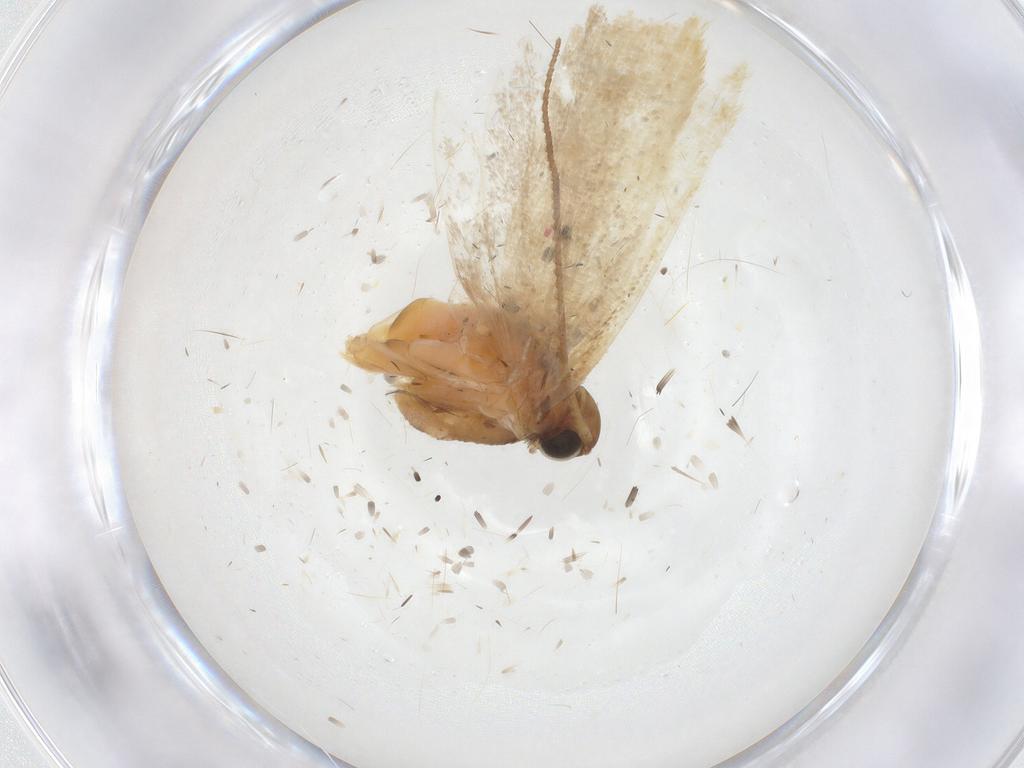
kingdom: Animalia
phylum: Arthropoda
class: Insecta
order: Lepidoptera
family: Gelechiidae
